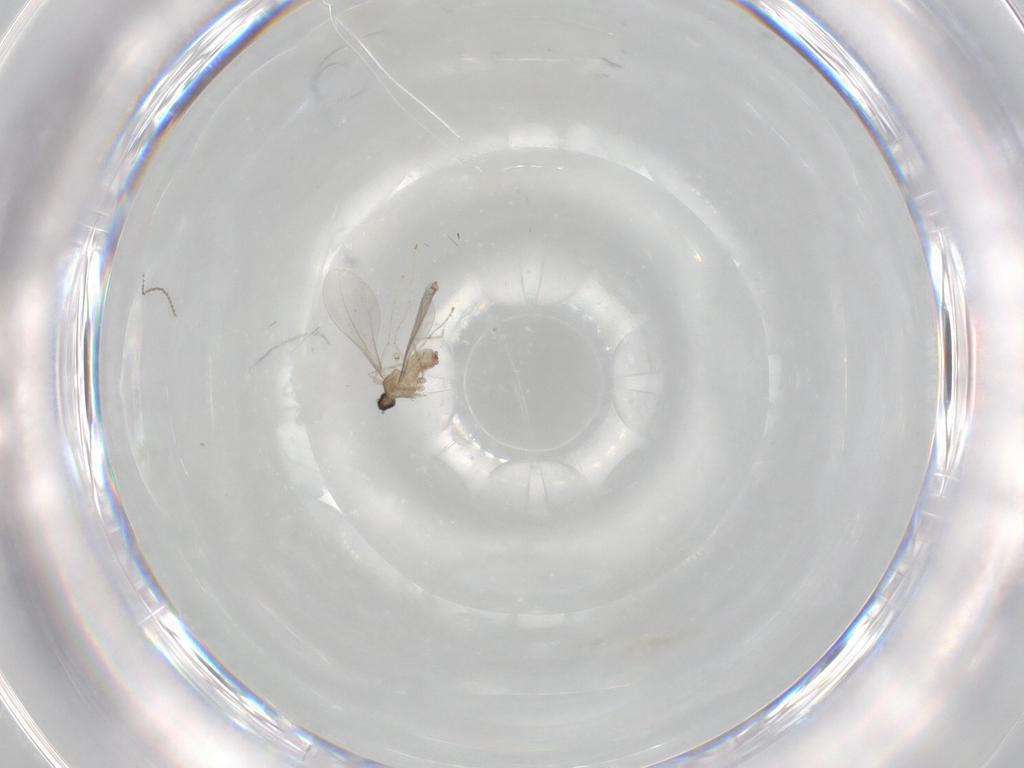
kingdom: Animalia
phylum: Arthropoda
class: Insecta
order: Diptera
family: Cecidomyiidae
